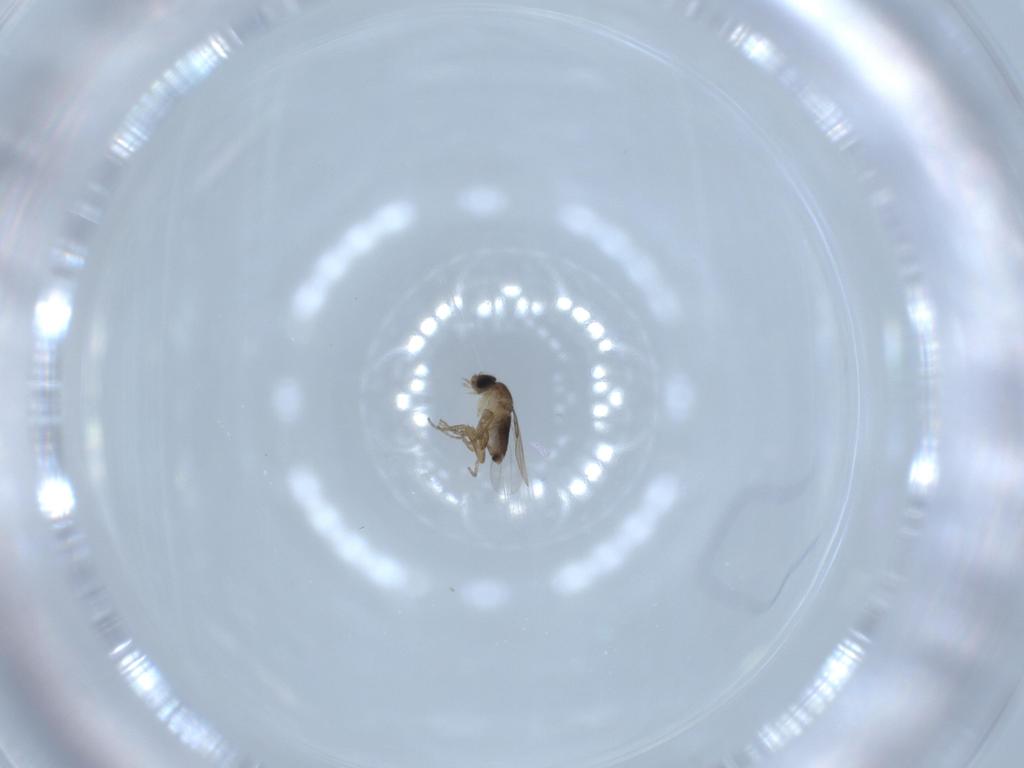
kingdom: Animalia
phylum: Arthropoda
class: Insecta
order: Diptera
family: Phoridae
